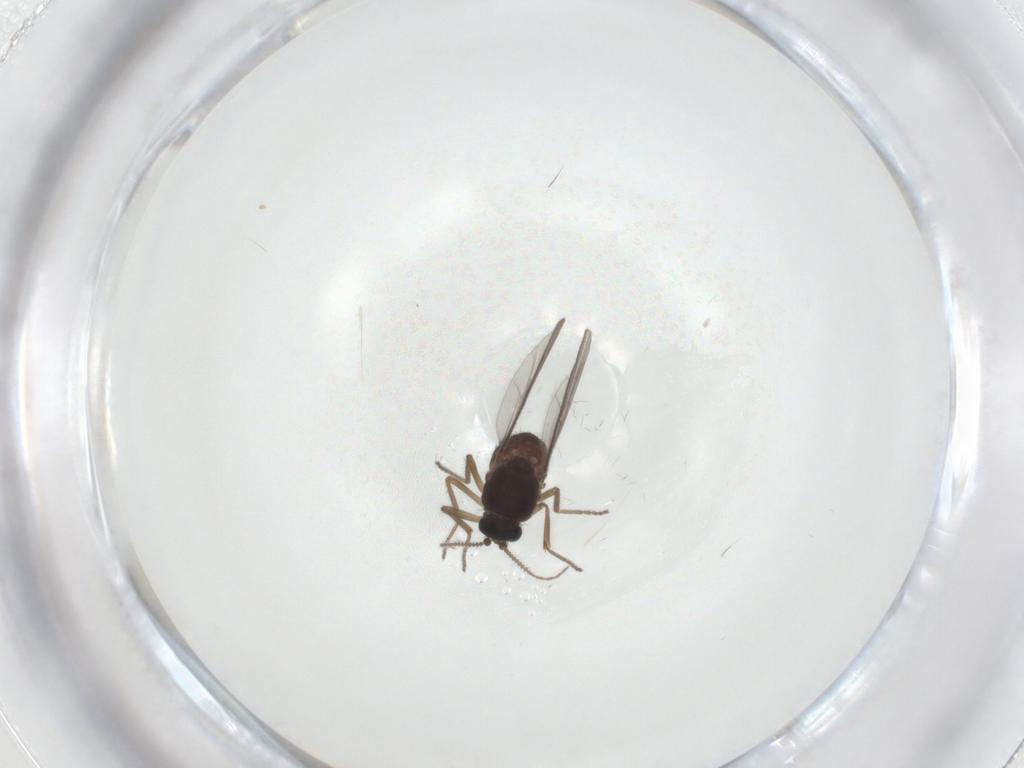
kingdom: Animalia
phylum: Arthropoda
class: Insecta
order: Diptera
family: Ceratopogonidae
